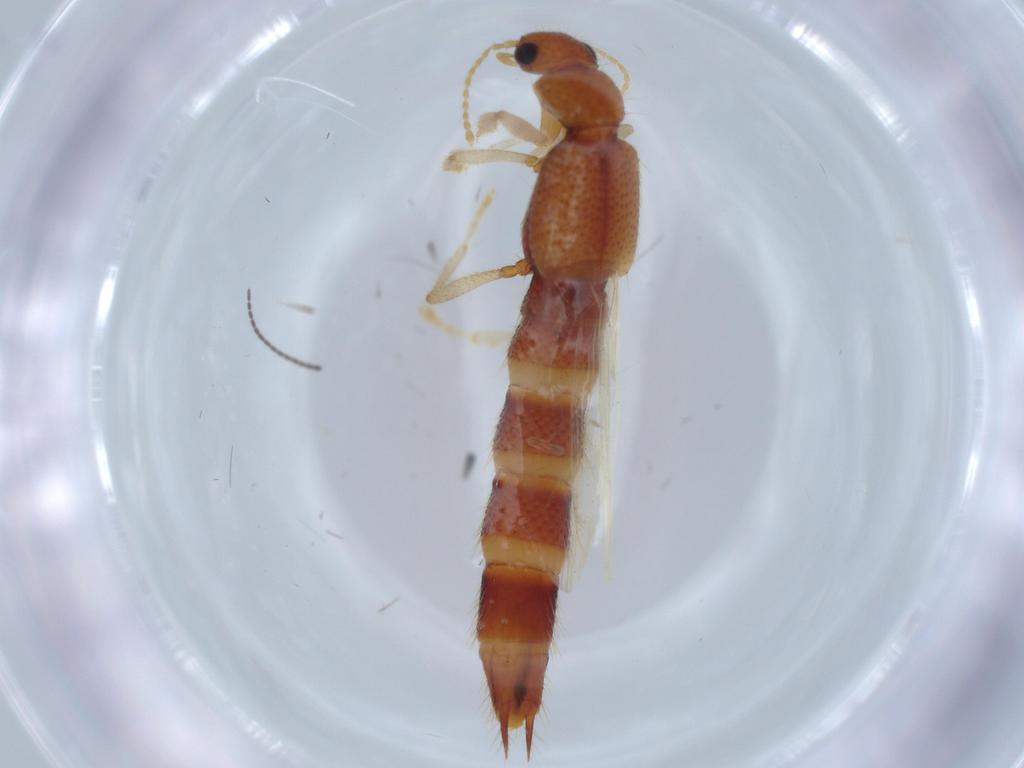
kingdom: Animalia
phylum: Arthropoda
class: Insecta
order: Coleoptera
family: Staphylinidae
